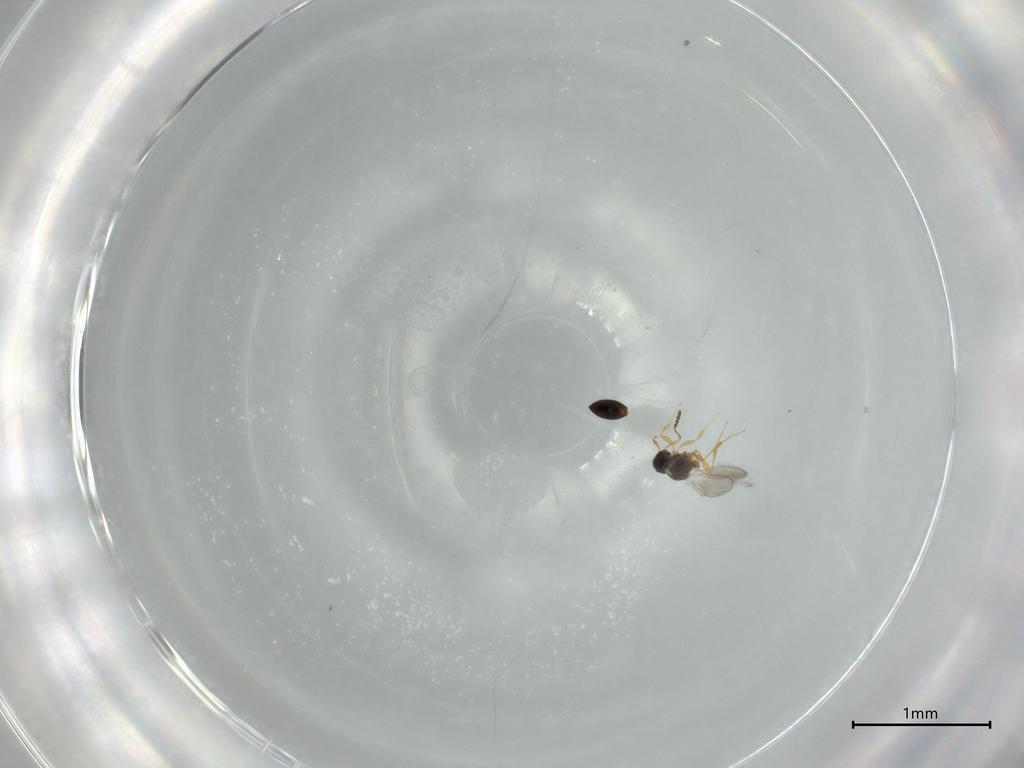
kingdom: Animalia
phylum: Arthropoda
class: Insecta
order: Hymenoptera
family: Platygastridae
